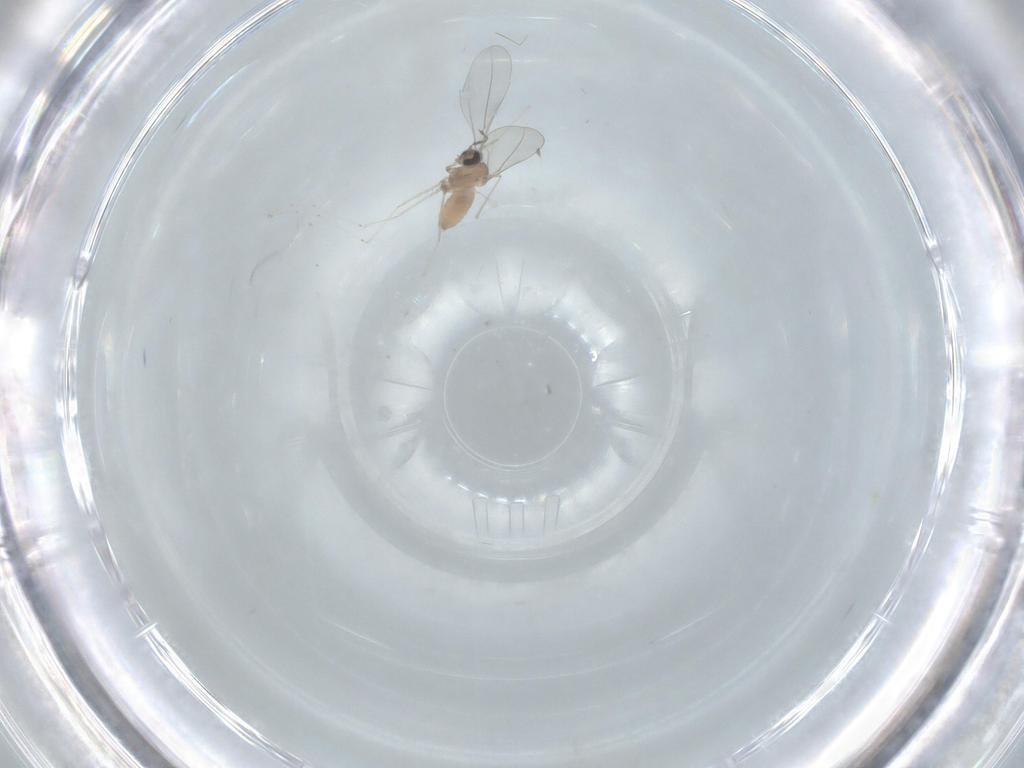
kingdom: Animalia
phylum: Arthropoda
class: Insecta
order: Diptera
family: Cecidomyiidae
